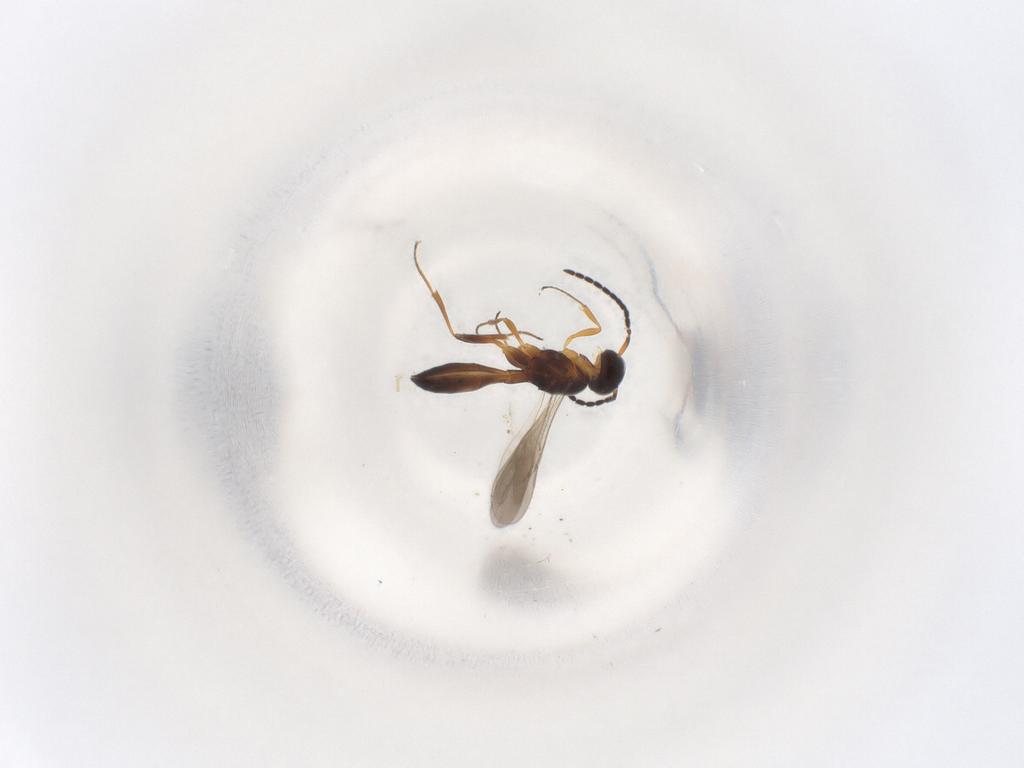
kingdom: Animalia
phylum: Arthropoda
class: Insecta
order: Hymenoptera
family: Scelionidae
